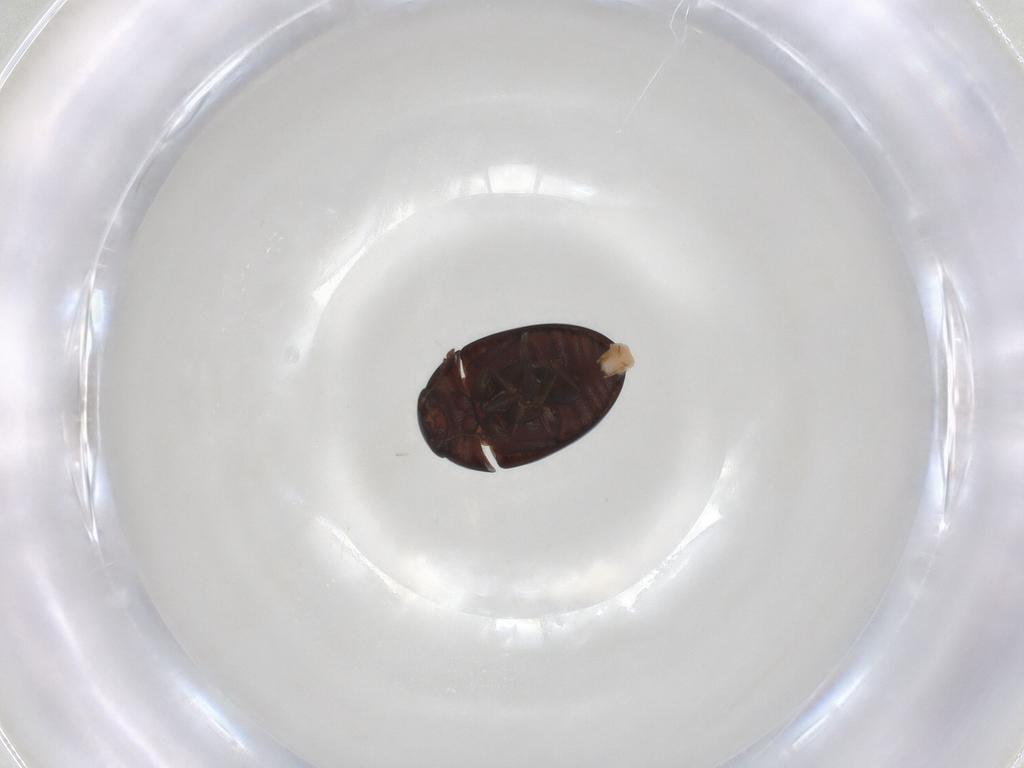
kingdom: Animalia
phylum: Arthropoda
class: Insecta
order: Coleoptera
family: Phalacridae
